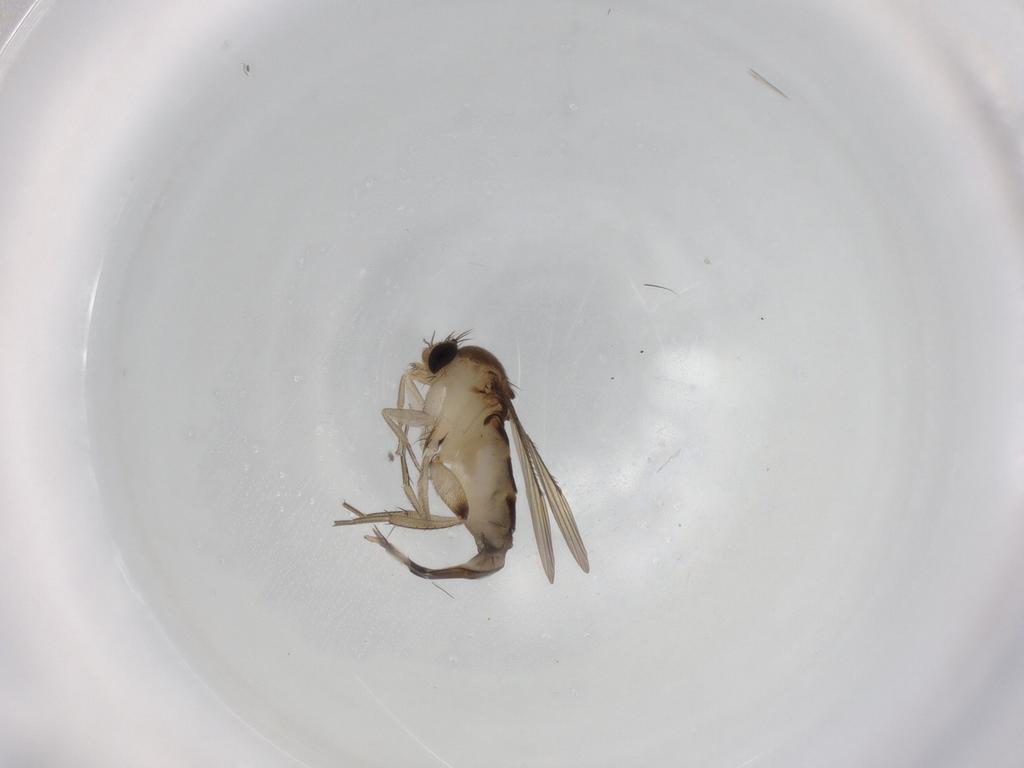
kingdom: Animalia
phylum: Arthropoda
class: Insecta
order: Diptera
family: Phoridae
